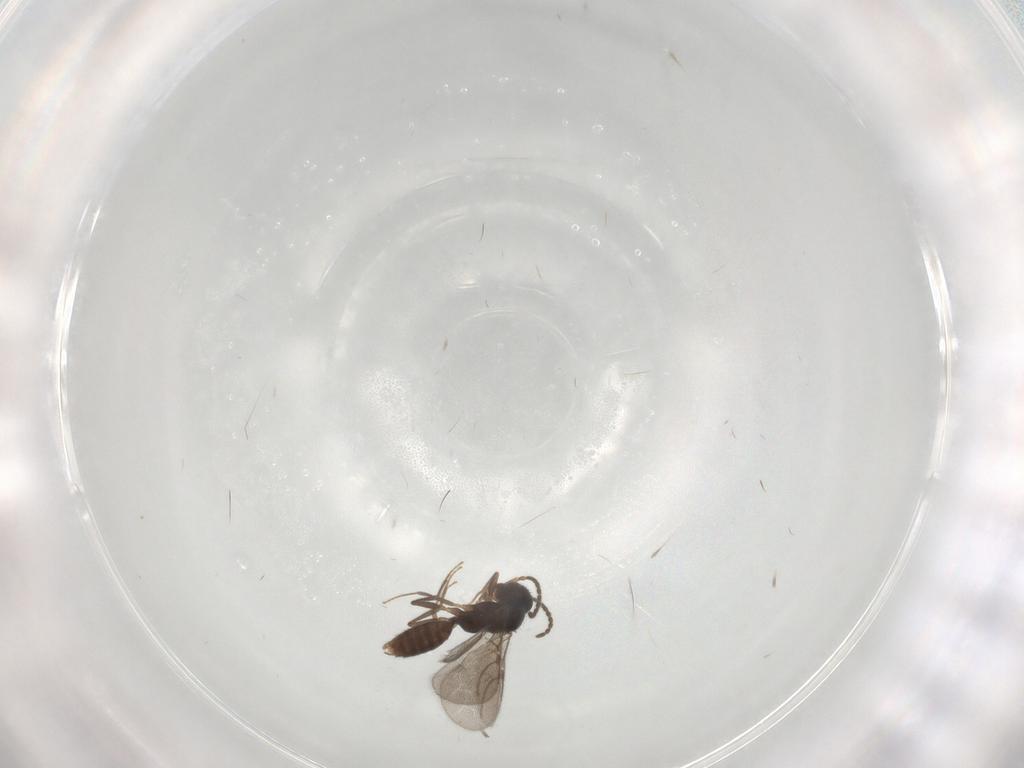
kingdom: Animalia
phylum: Arthropoda
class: Insecta
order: Hymenoptera
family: Bethylidae
